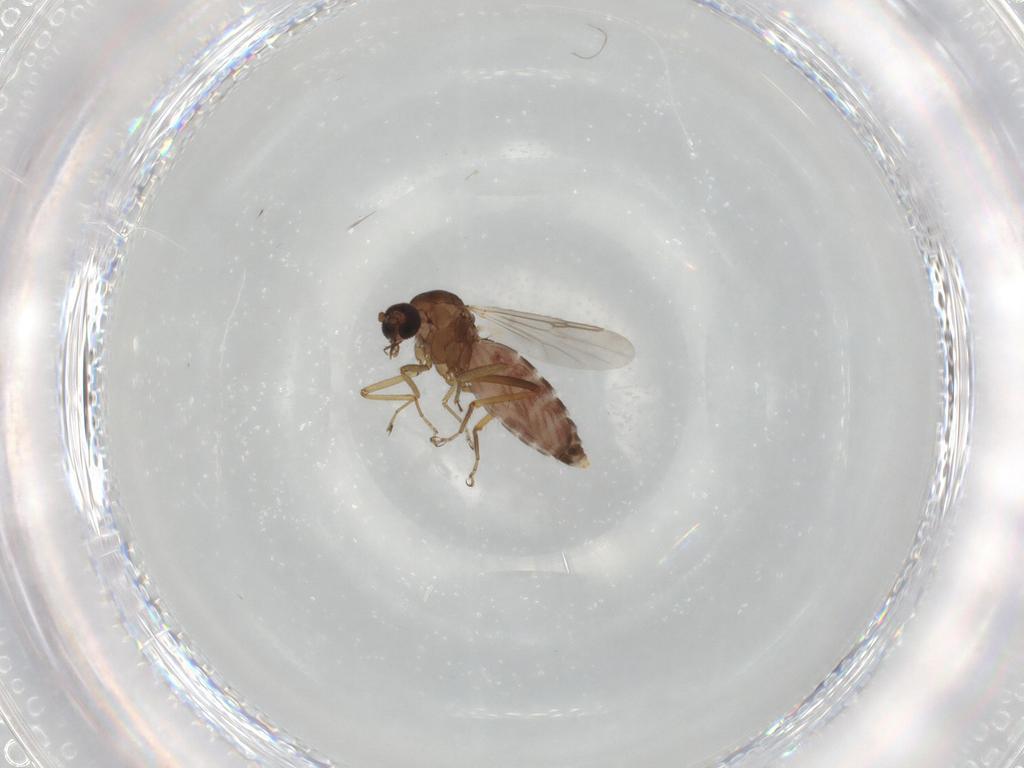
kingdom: Animalia
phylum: Arthropoda
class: Insecta
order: Diptera
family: Ceratopogonidae
